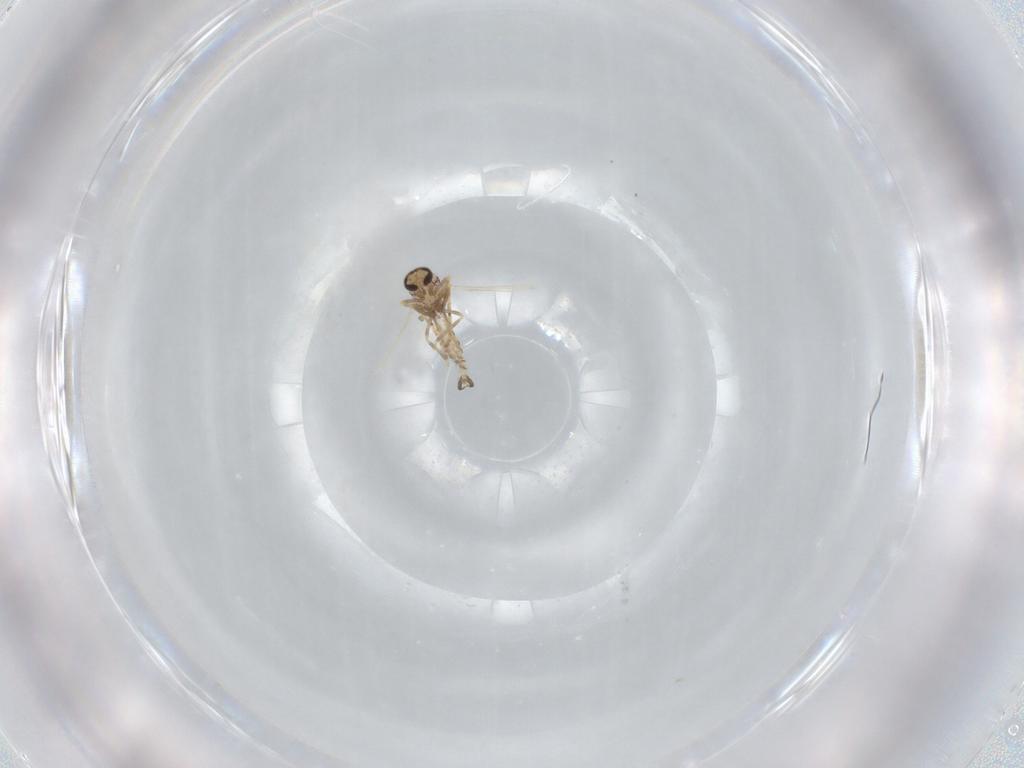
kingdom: Animalia
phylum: Arthropoda
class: Insecta
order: Diptera
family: Ceratopogonidae
